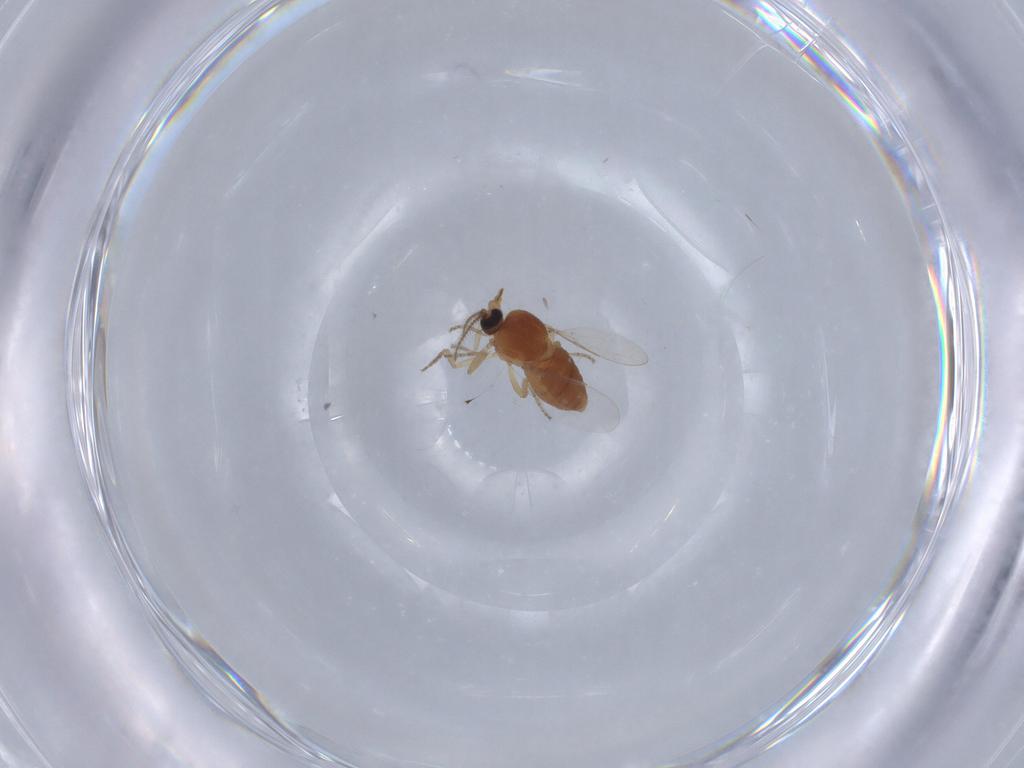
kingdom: Animalia
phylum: Arthropoda
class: Insecta
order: Diptera
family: Ceratopogonidae
